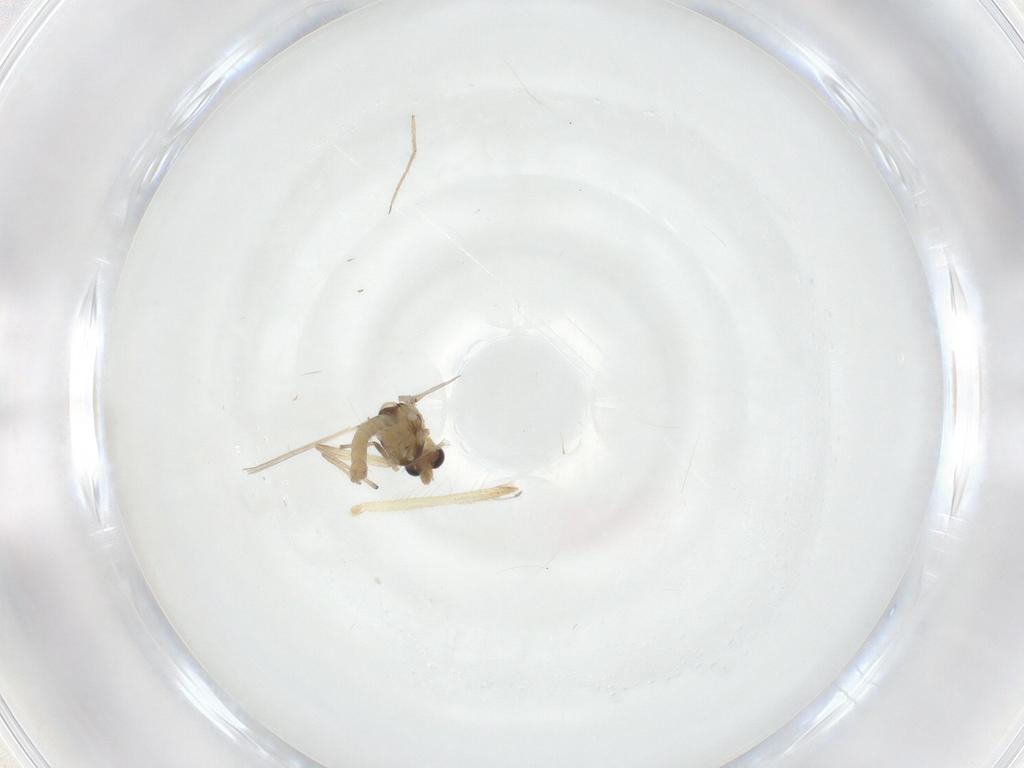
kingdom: Animalia
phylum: Arthropoda
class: Insecta
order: Diptera
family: Chironomidae
